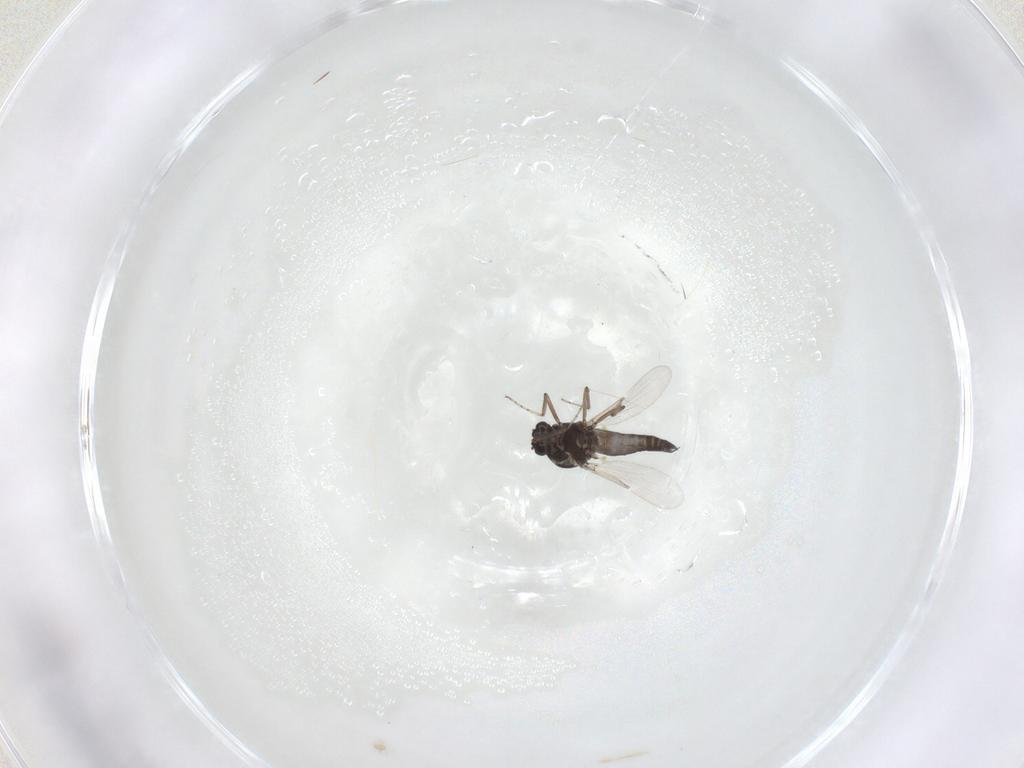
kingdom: Animalia
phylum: Arthropoda
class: Insecta
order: Diptera
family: Ceratopogonidae
